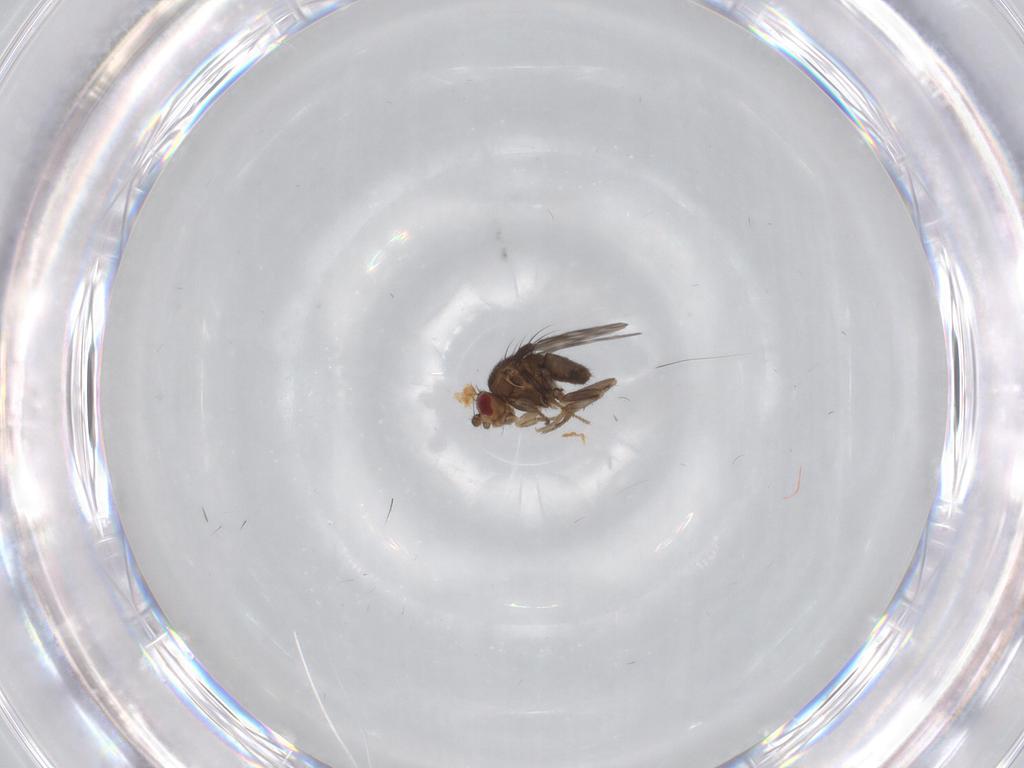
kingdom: Animalia
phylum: Arthropoda
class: Insecta
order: Diptera
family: Sphaeroceridae
